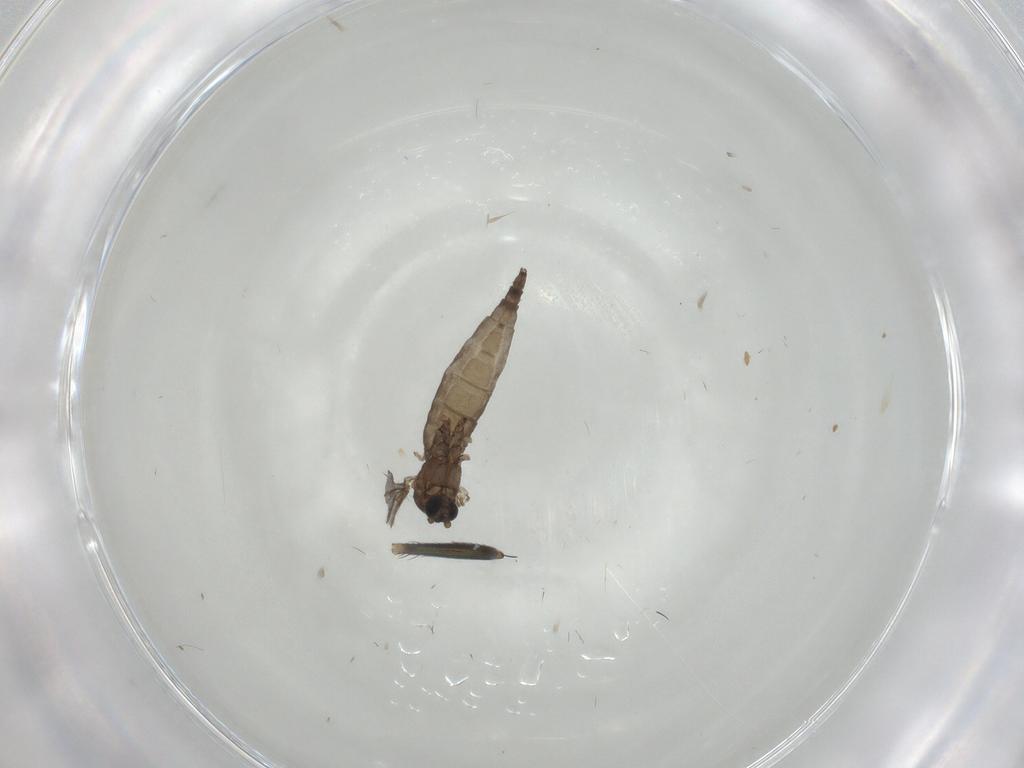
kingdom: Animalia
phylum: Arthropoda
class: Insecta
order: Diptera
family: Sciaridae
